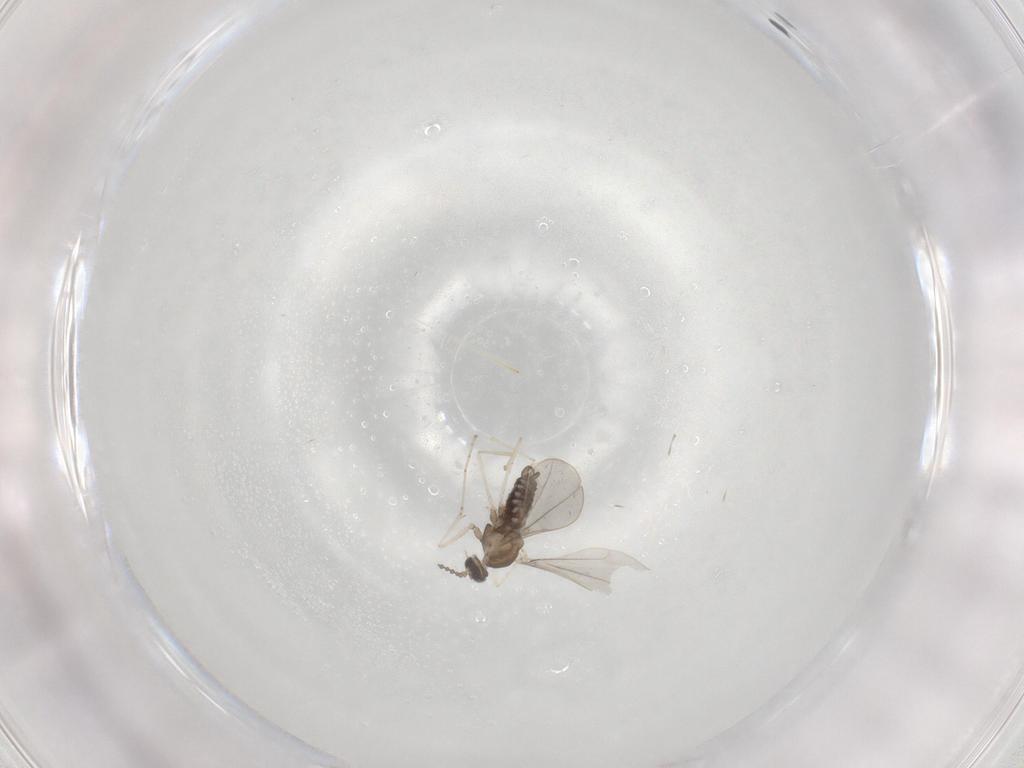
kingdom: Animalia
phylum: Arthropoda
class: Insecta
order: Diptera
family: Cecidomyiidae
